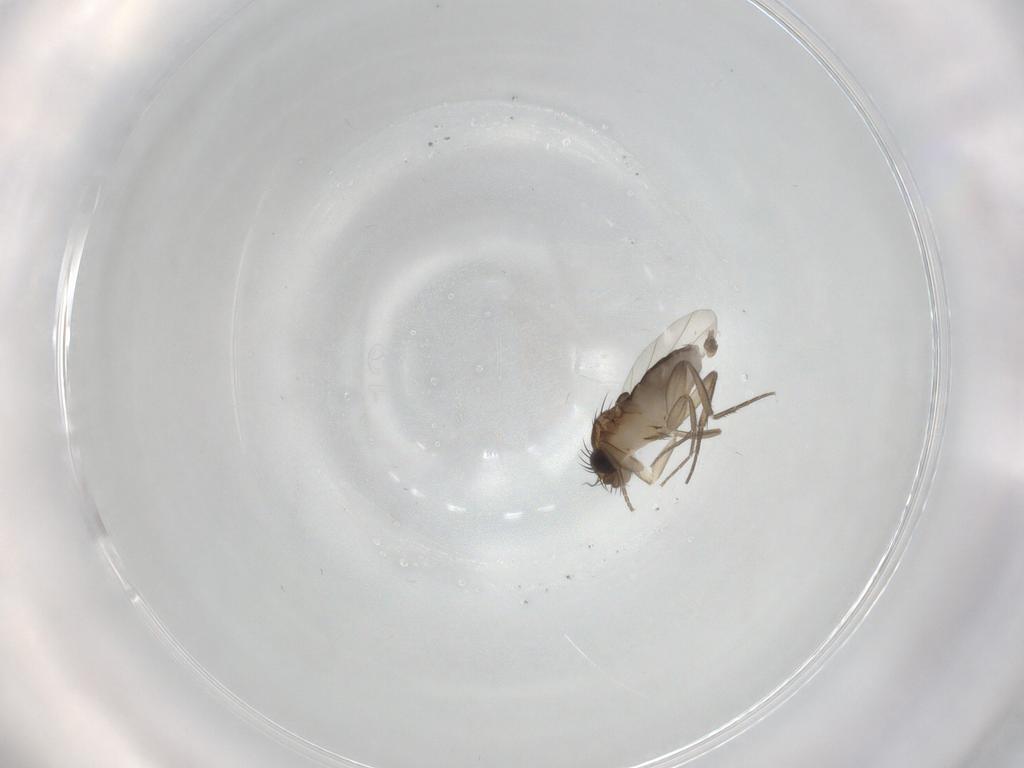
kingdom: Animalia
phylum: Arthropoda
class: Insecta
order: Diptera
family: Phoridae
